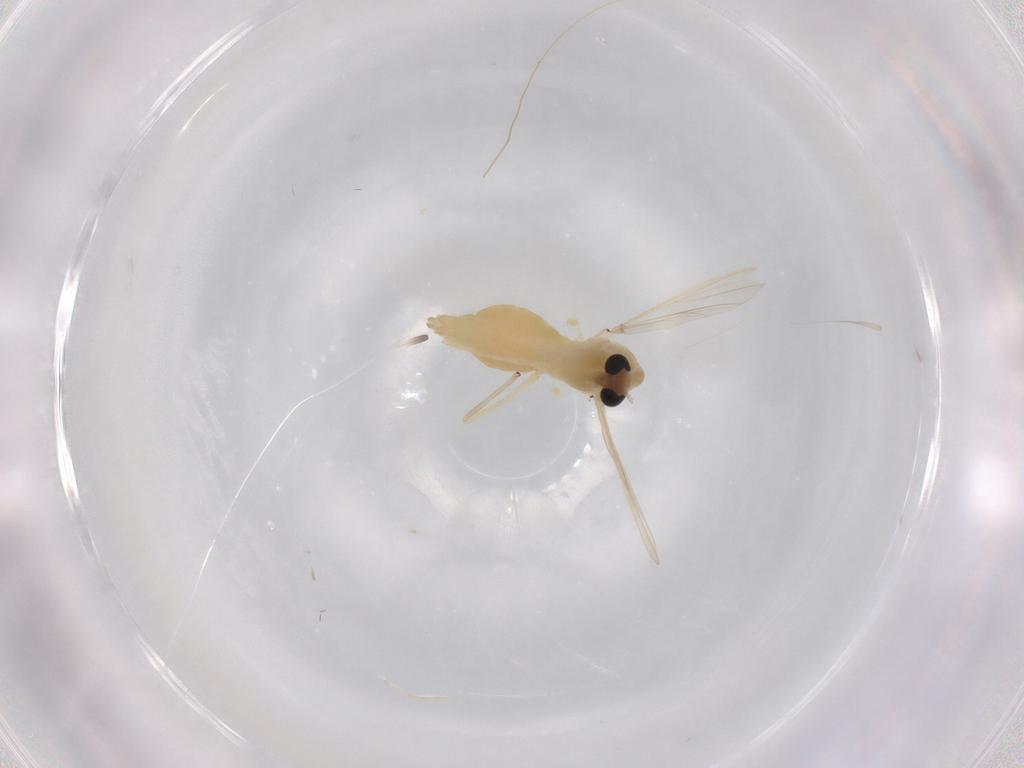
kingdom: Animalia
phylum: Arthropoda
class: Insecta
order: Diptera
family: Chironomidae
